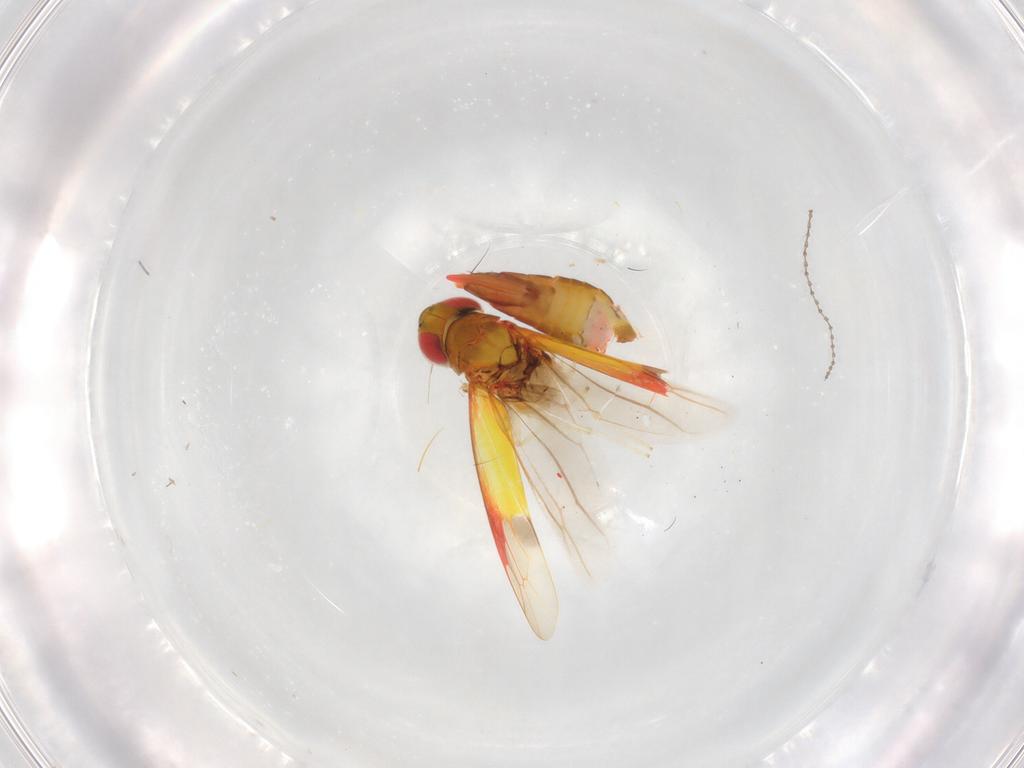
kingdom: Animalia
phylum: Arthropoda
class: Insecta
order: Hemiptera
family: Cicadellidae
